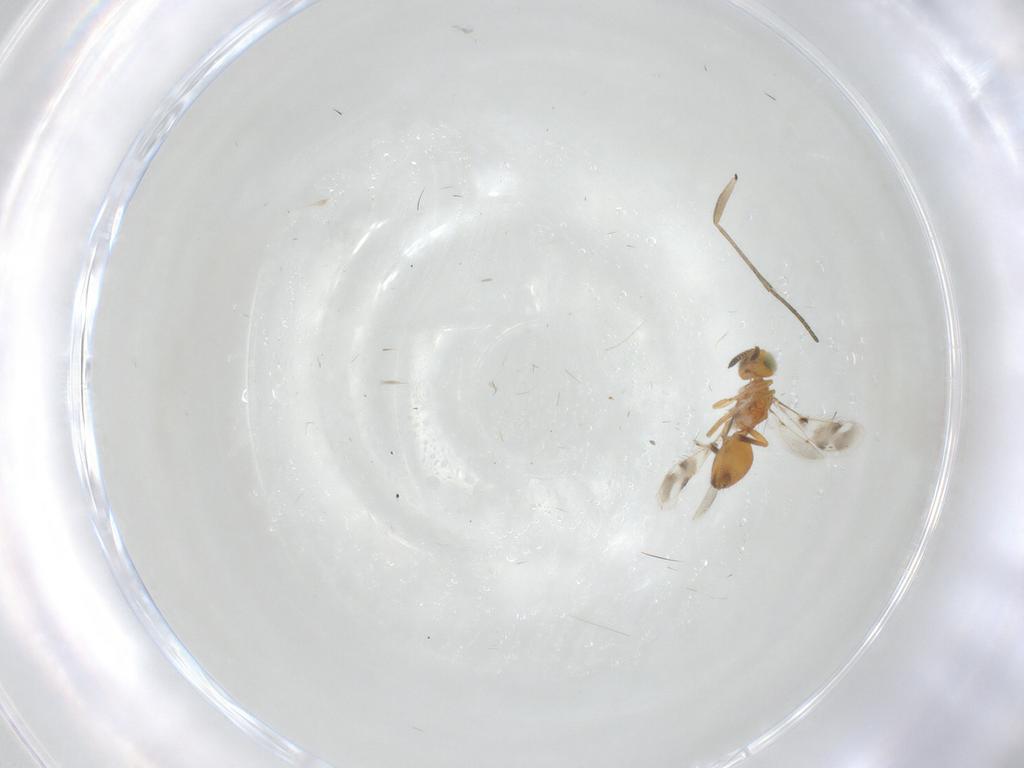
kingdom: Animalia
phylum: Arthropoda
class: Insecta
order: Hymenoptera
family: Pteromalidae
